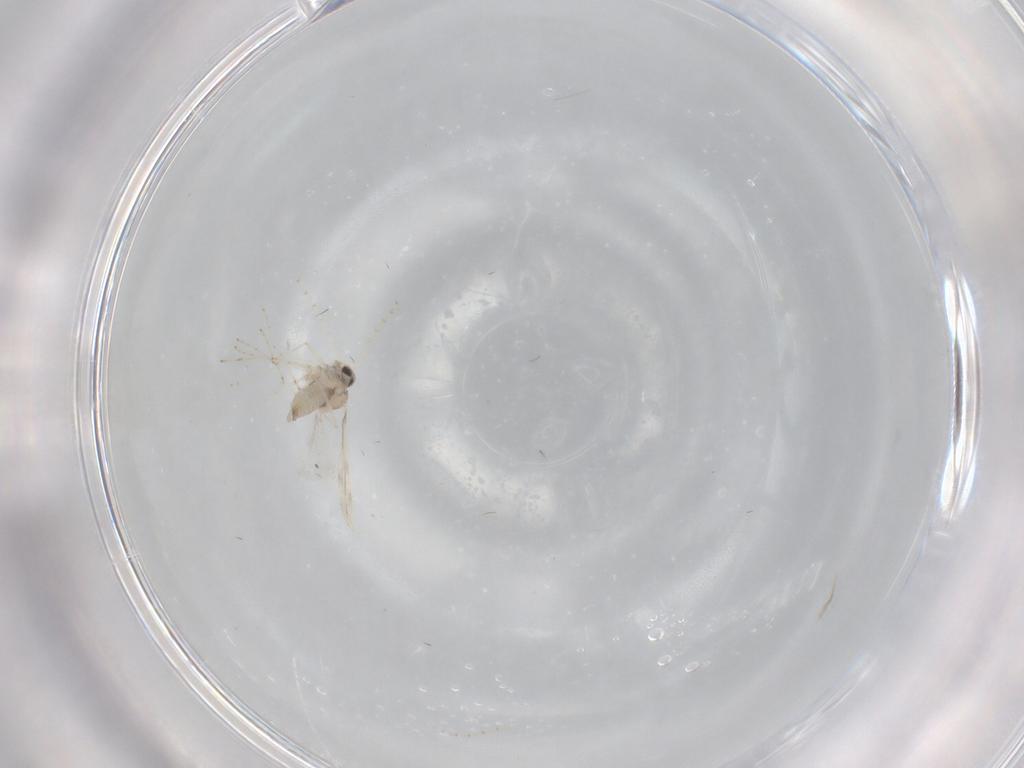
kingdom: Animalia
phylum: Arthropoda
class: Insecta
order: Diptera
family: Cecidomyiidae
